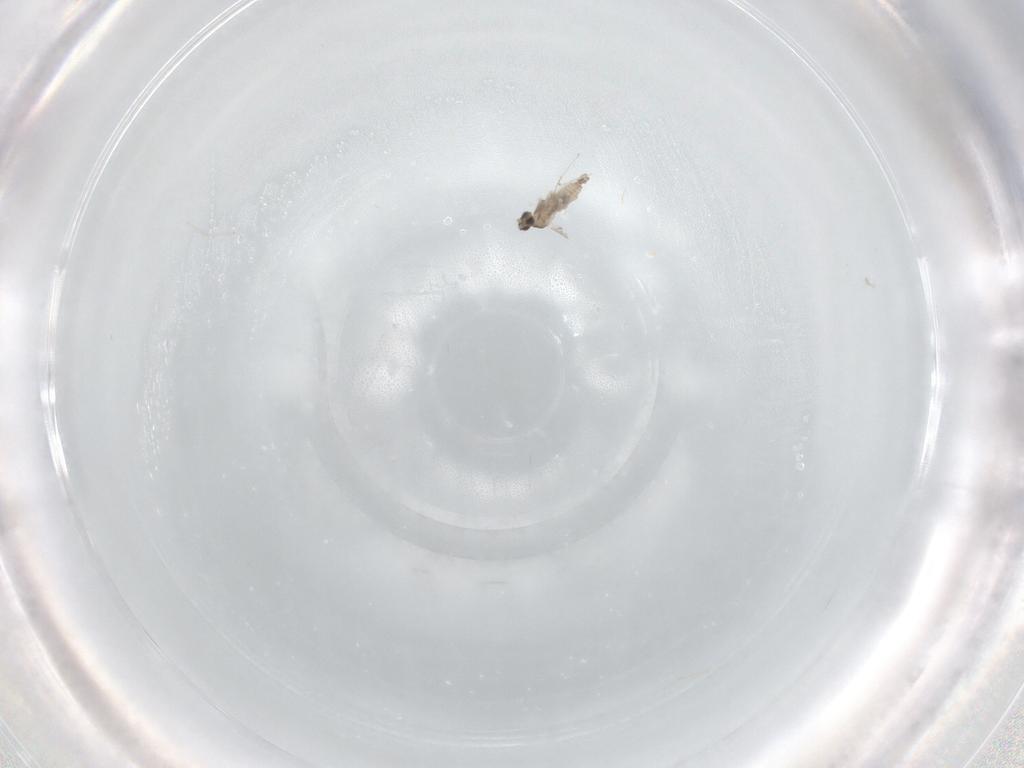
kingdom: Animalia
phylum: Arthropoda
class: Insecta
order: Diptera
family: Cecidomyiidae
